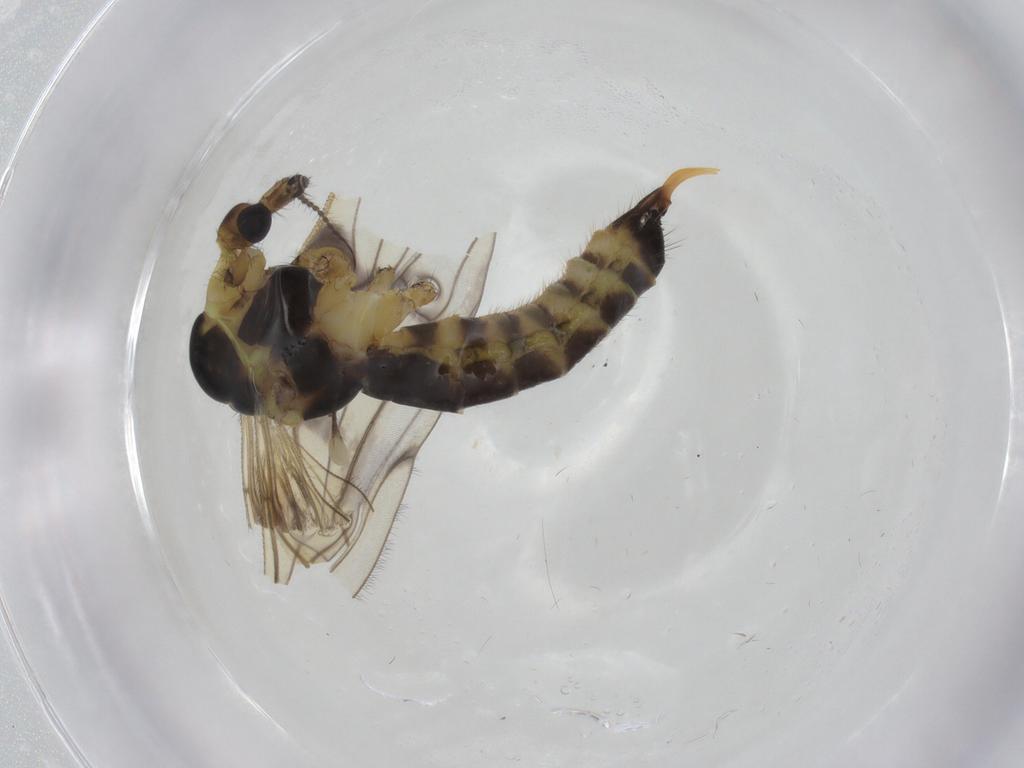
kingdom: Animalia
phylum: Arthropoda
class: Insecta
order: Diptera
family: Limoniidae
